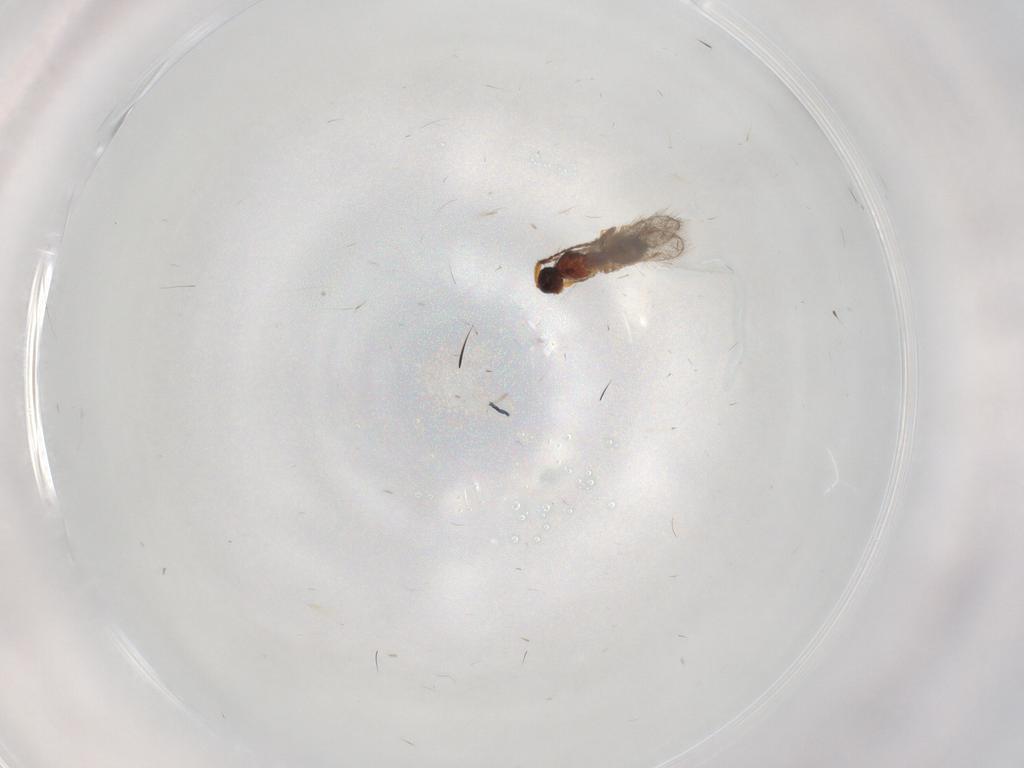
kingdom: Animalia
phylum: Arthropoda
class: Insecta
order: Hymenoptera
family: Diapriidae
